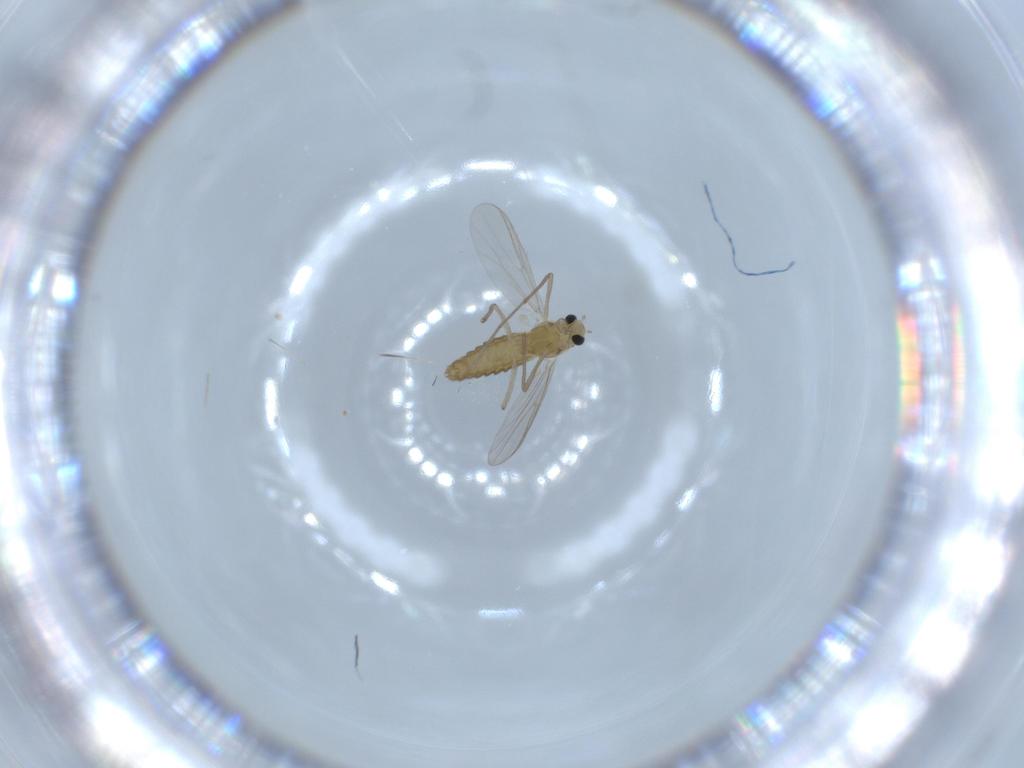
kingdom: Animalia
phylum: Arthropoda
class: Insecta
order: Diptera
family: Chironomidae
